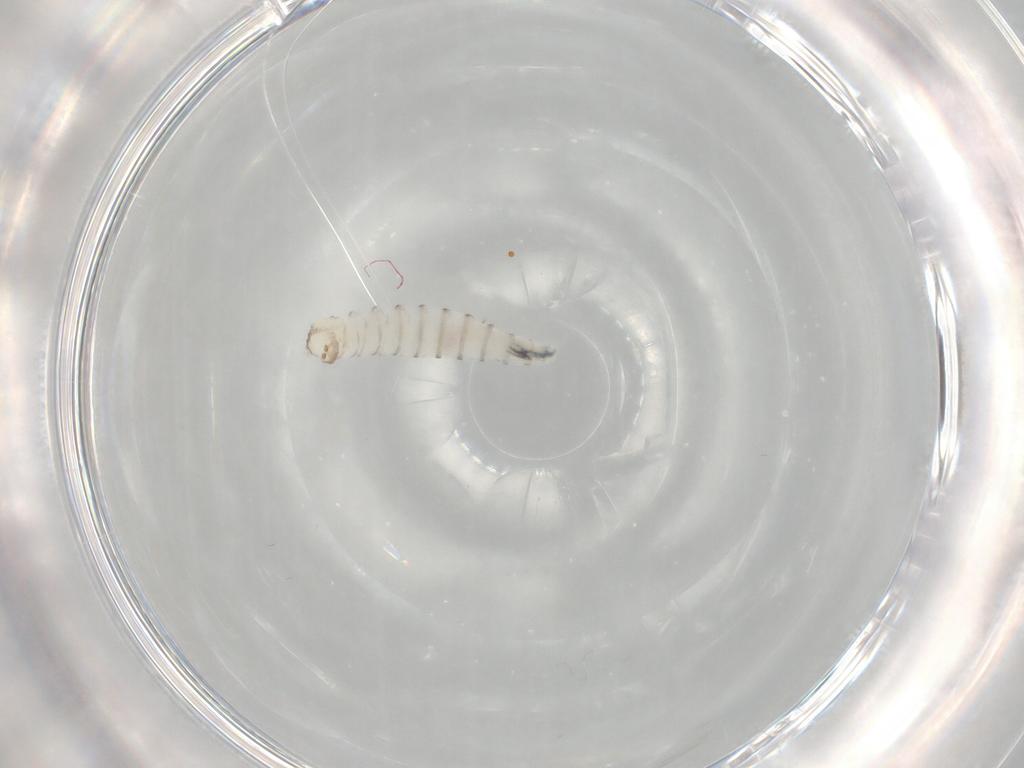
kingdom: Animalia
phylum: Arthropoda
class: Insecta
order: Diptera
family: Sarcophagidae
